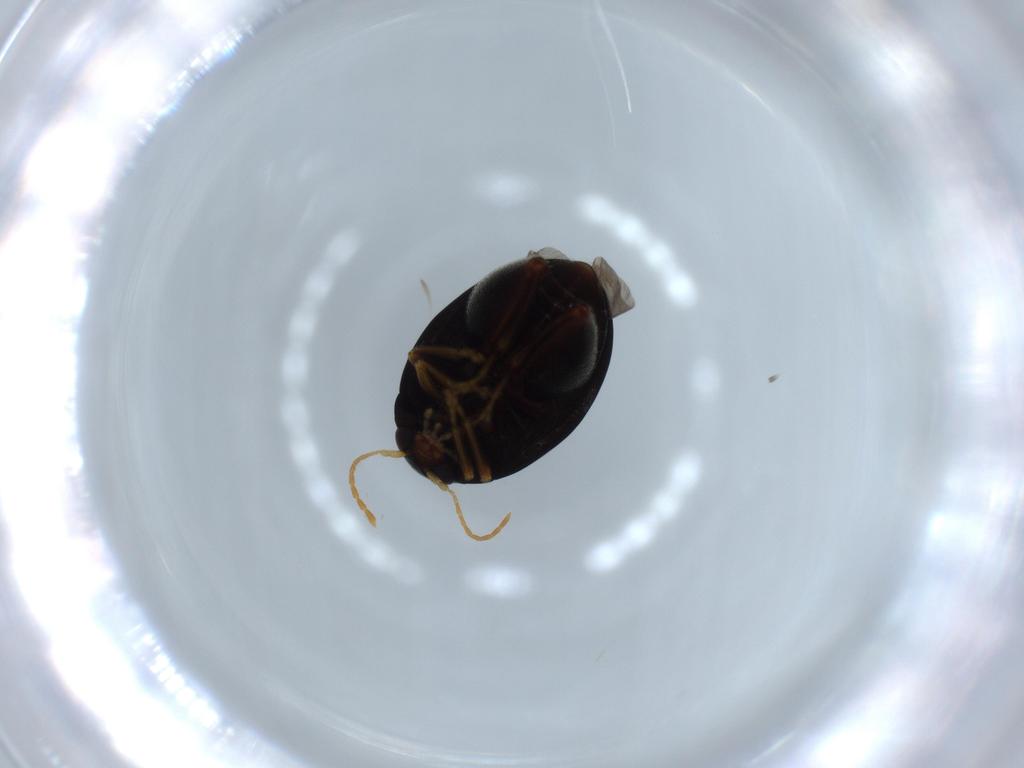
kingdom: Animalia
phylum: Arthropoda
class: Insecta
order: Coleoptera
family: Chrysomelidae
